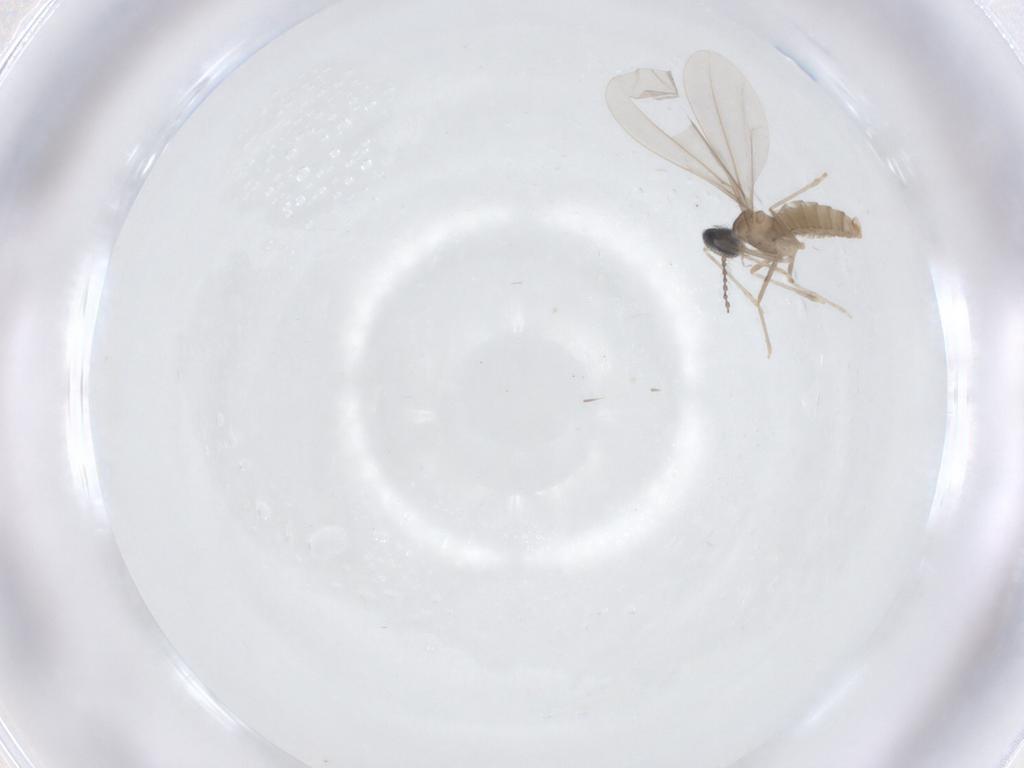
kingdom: Animalia
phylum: Arthropoda
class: Insecta
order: Diptera
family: Cecidomyiidae
